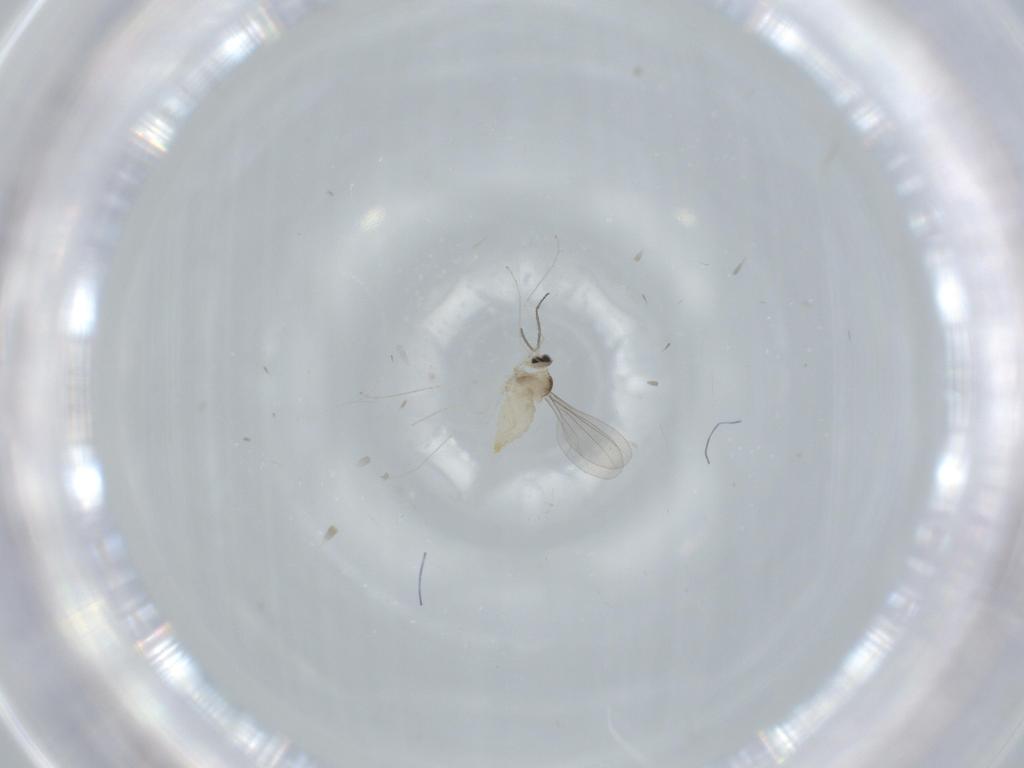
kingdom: Animalia
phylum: Arthropoda
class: Insecta
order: Diptera
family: Cecidomyiidae
